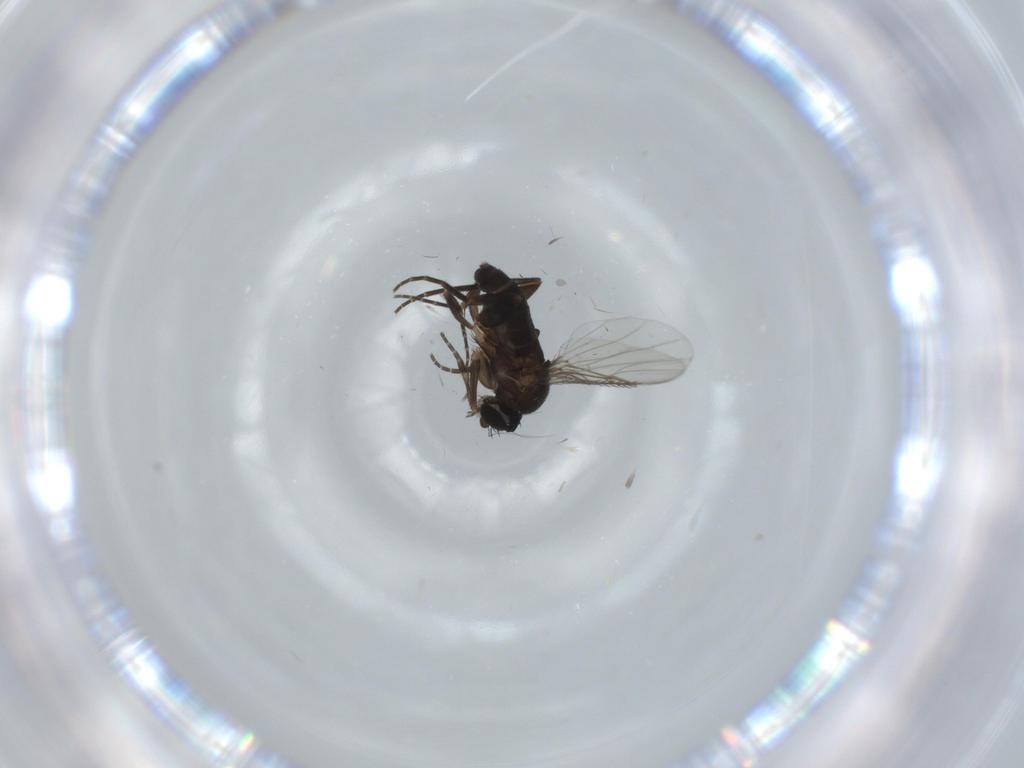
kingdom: Animalia
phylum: Arthropoda
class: Insecta
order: Diptera
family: Phoridae
